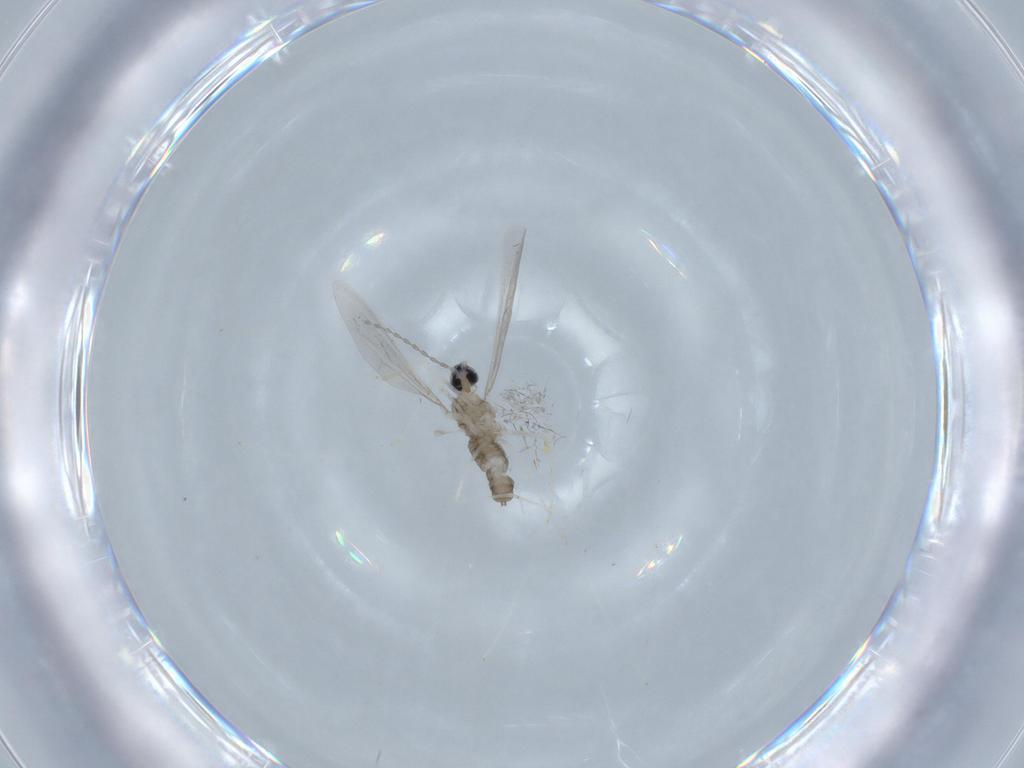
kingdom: Animalia
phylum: Arthropoda
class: Insecta
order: Diptera
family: Cecidomyiidae
